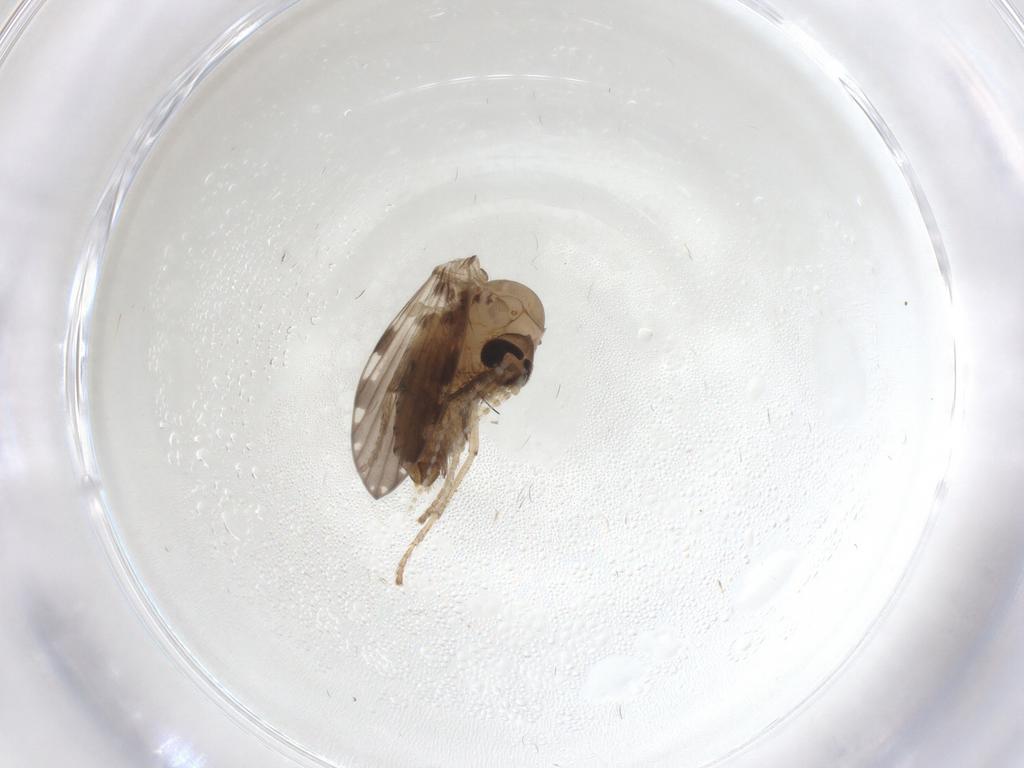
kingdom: Animalia
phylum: Arthropoda
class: Insecta
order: Diptera
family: Psychodidae
